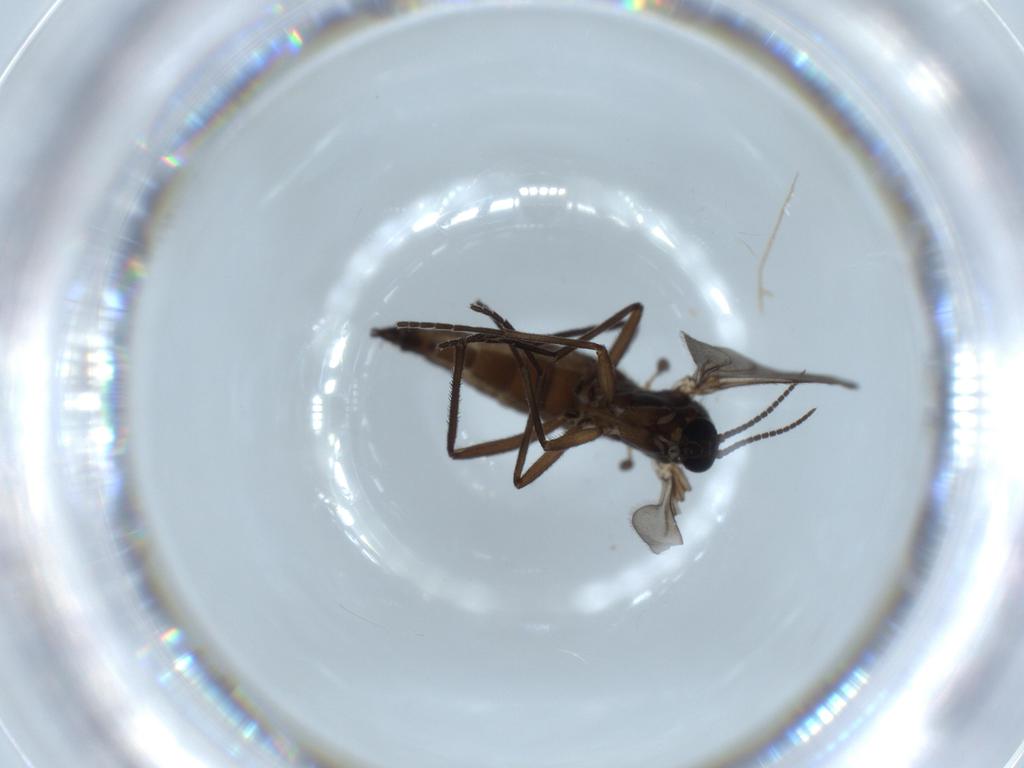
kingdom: Animalia
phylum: Arthropoda
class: Insecta
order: Diptera
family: Sciaridae
